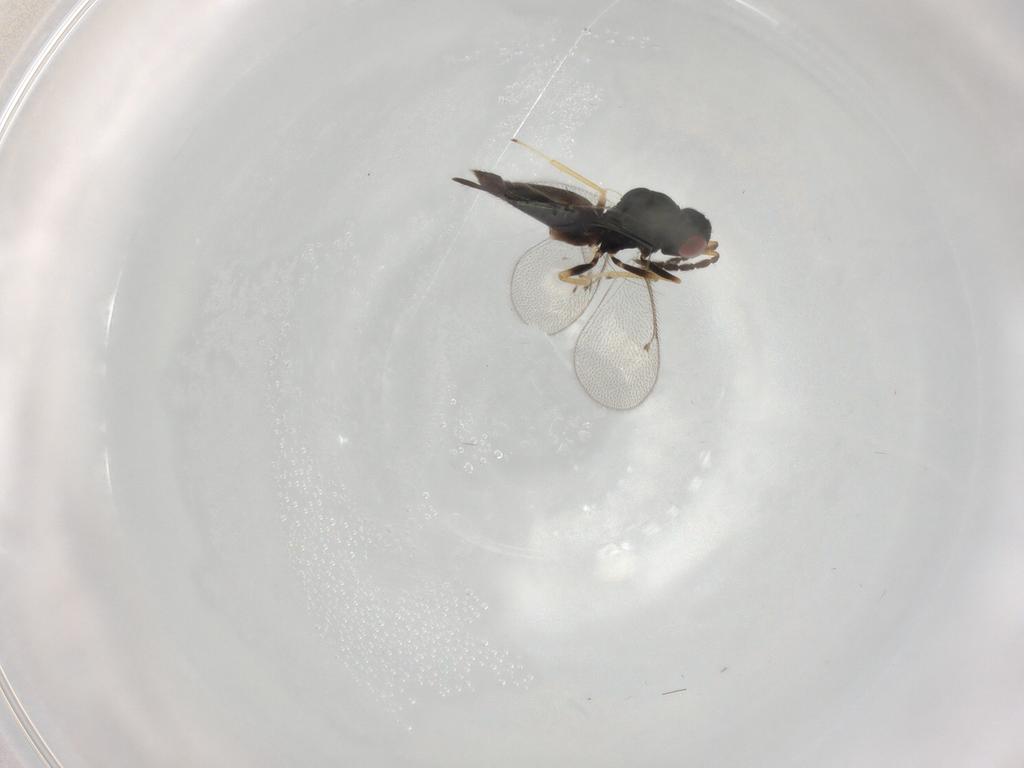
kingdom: Animalia
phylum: Arthropoda
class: Insecta
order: Hymenoptera
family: Eulophidae
